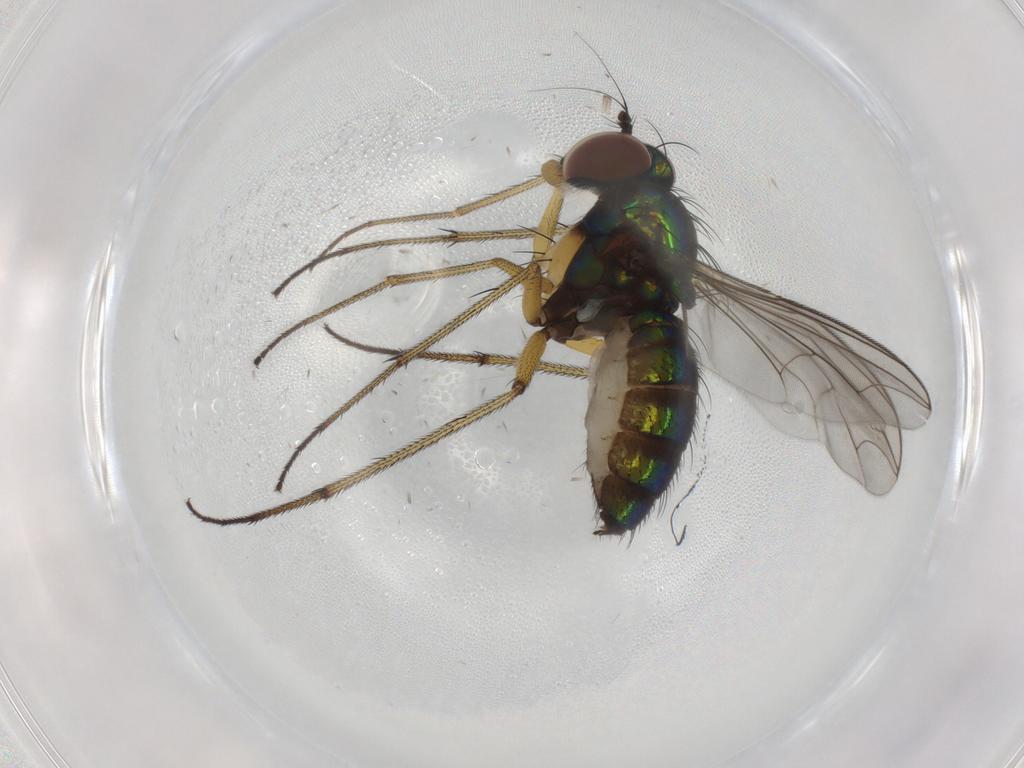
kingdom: Animalia
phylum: Arthropoda
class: Insecta
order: Diptera
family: Dolichopodidae
